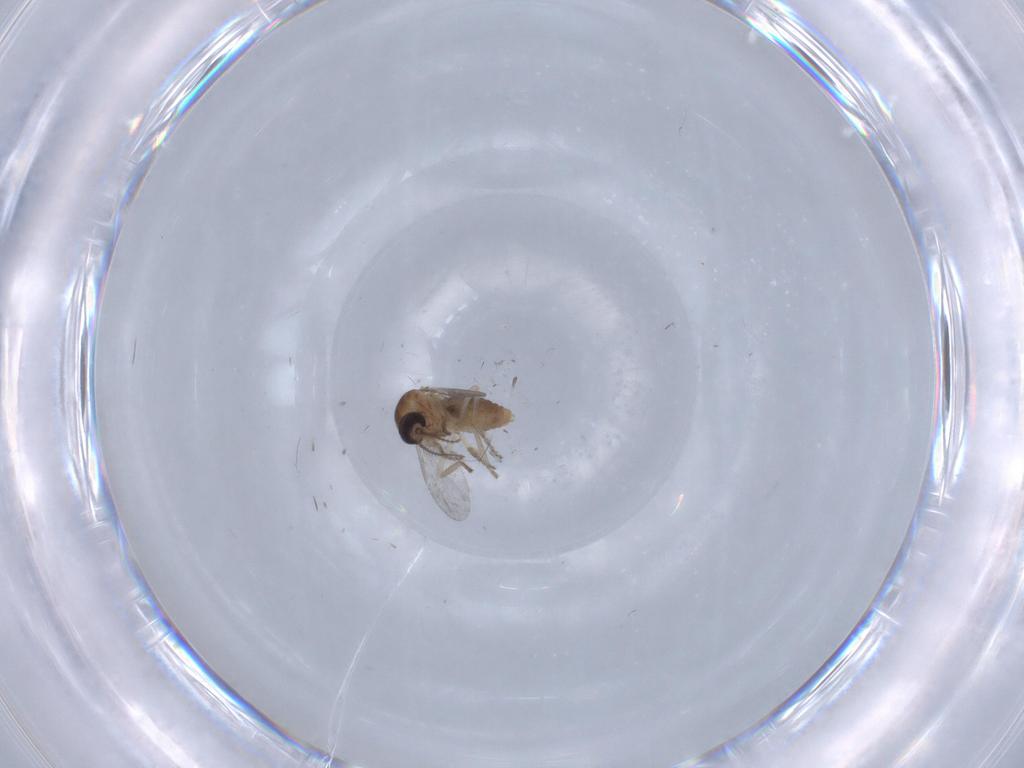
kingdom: Animalia
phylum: Arthropoda
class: Insecta
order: Diptera
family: Ceratopogonidae
